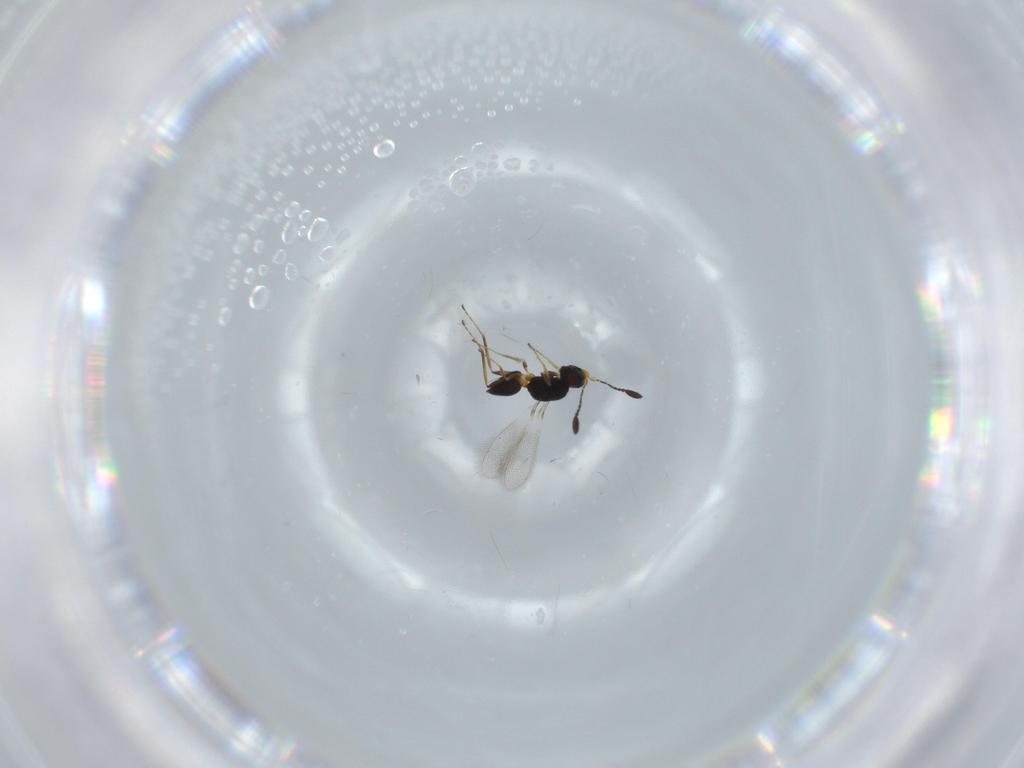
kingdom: Animalia
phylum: Arthropoda
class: Insecta
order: Hymenoptera
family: Mymaridae
